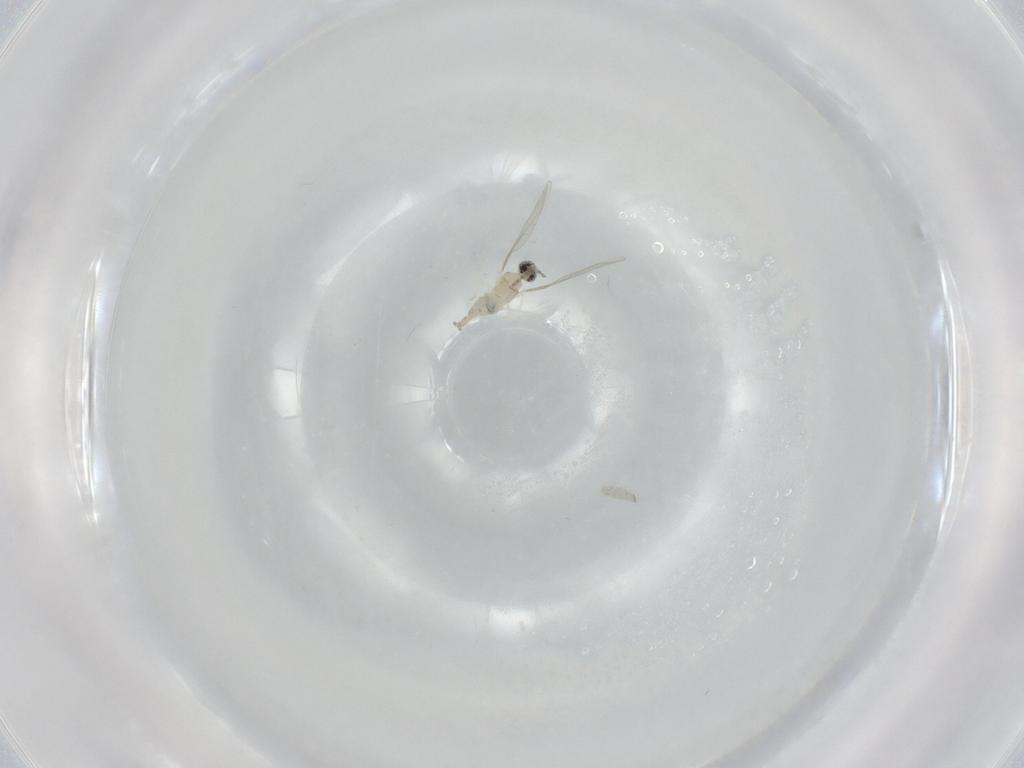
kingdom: Animalia
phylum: Arthropoda
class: Insecta
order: Diptera
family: Cecidomyiidae
